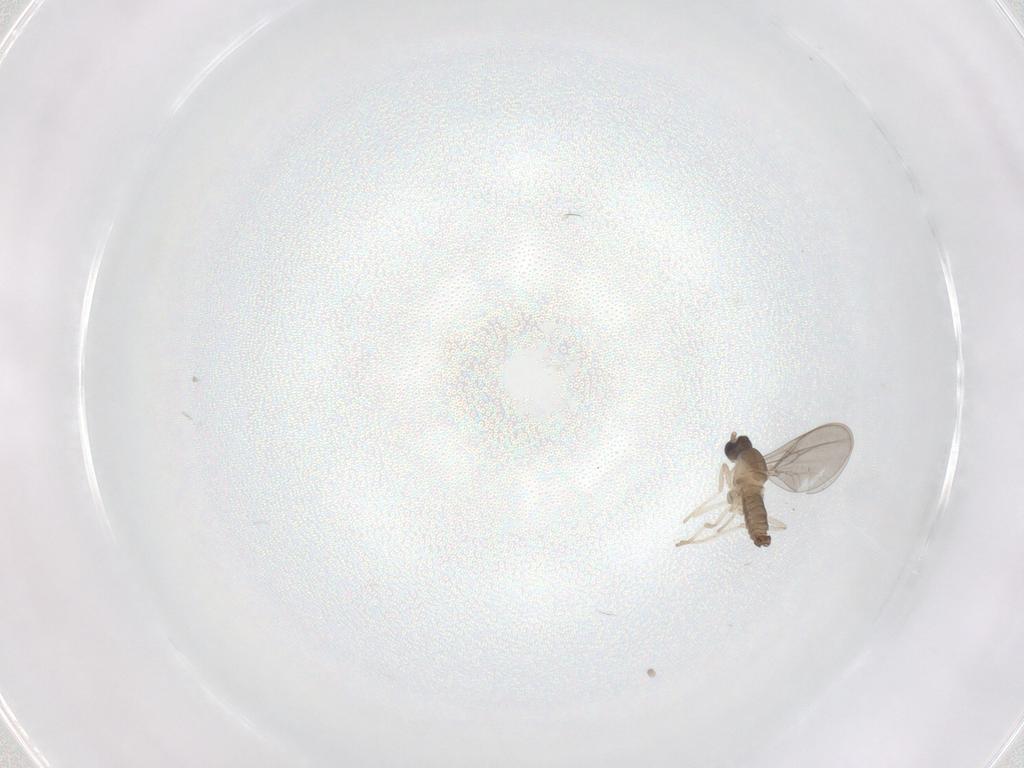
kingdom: Animalia
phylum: Arthropoda
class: Insecta
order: Diptera
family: Cecidomyiidae
